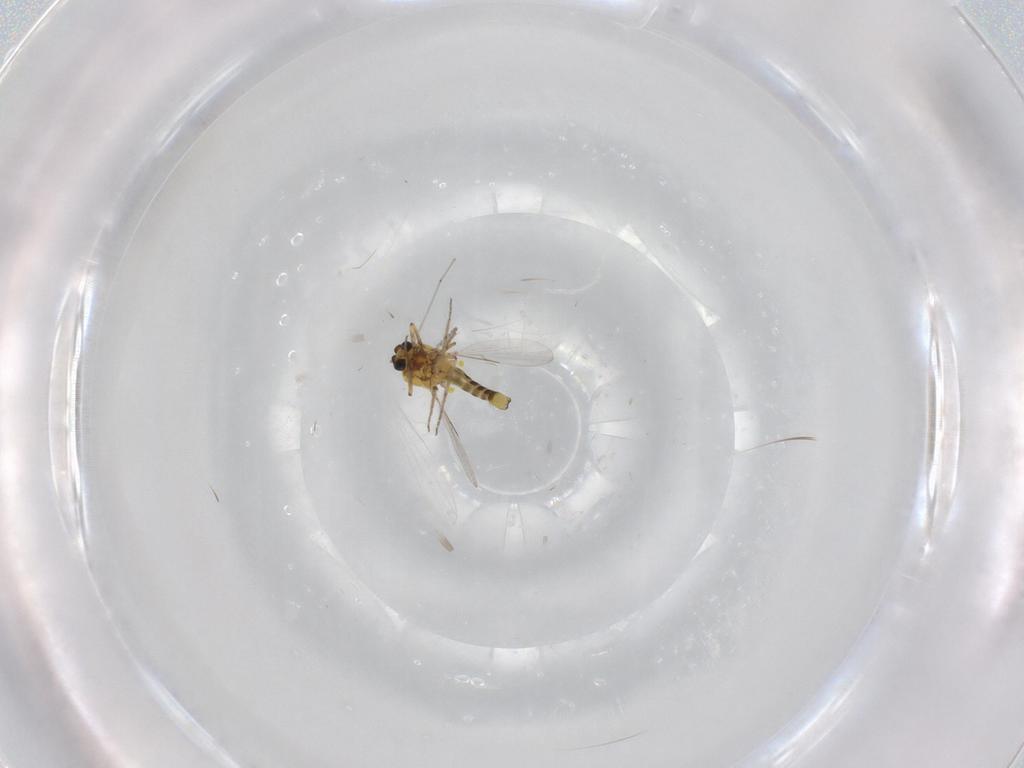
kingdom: Animalia
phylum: Arthropoda
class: Insecta
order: Diptera
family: Ceratopogonidae
